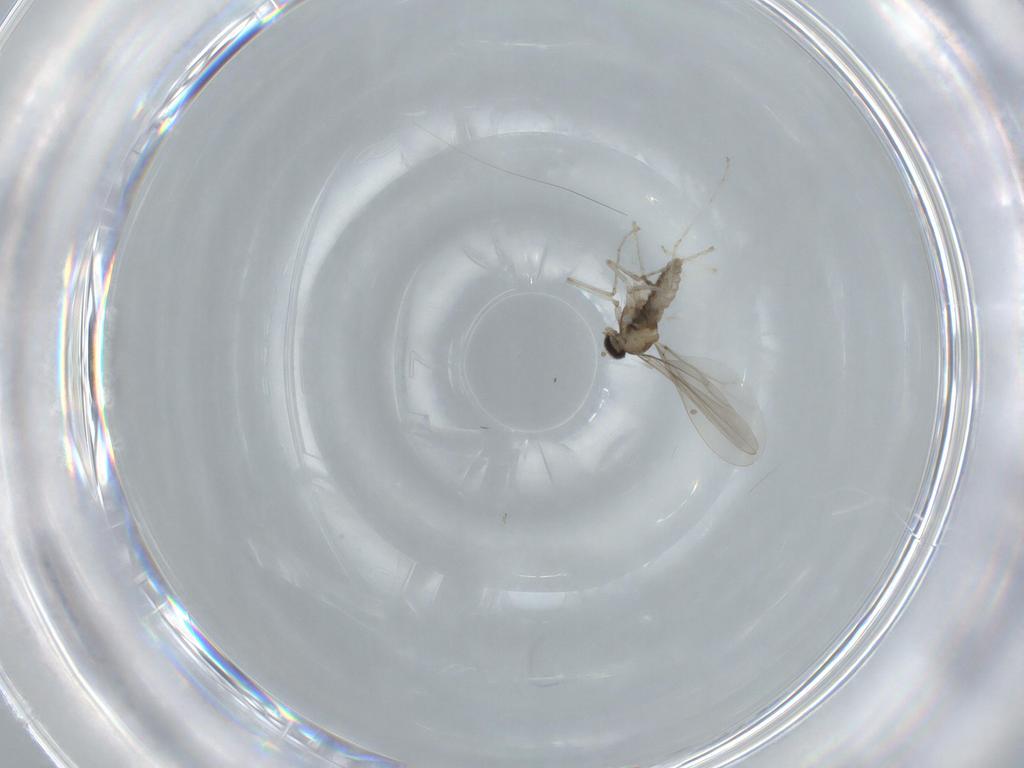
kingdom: Animalia
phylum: Arthropoda
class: Insecta
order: Diptera
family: Cecidomyiidae
